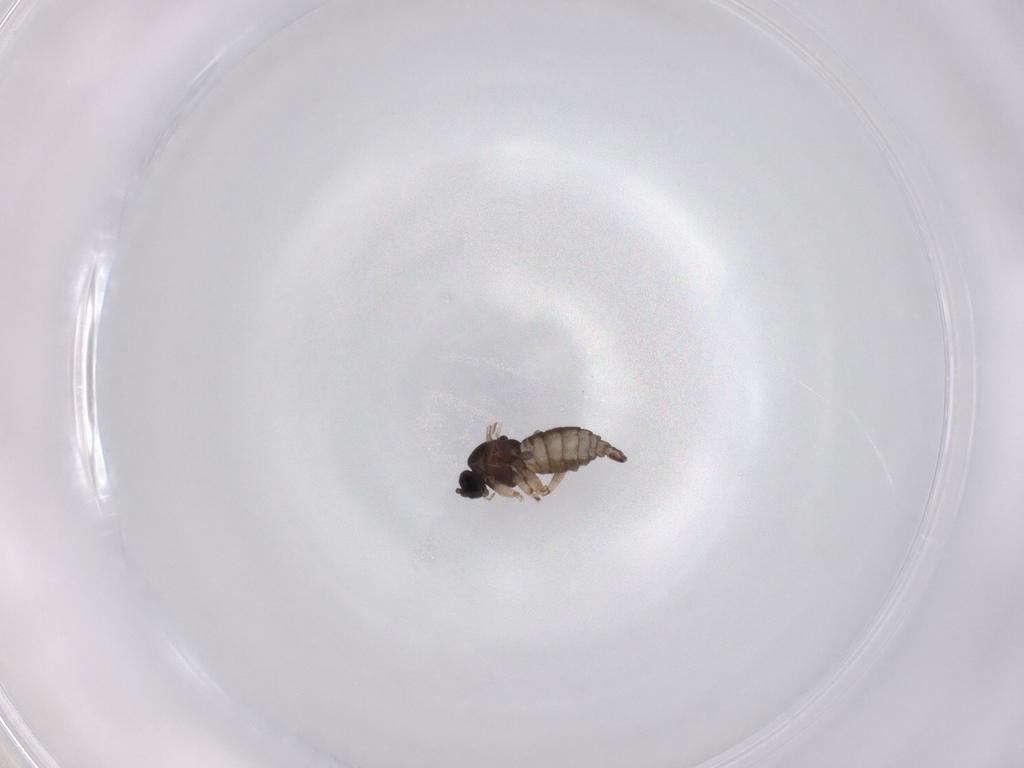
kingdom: Animalia
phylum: Arthropoda
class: Insecta
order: Diptera
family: Sciaridae
